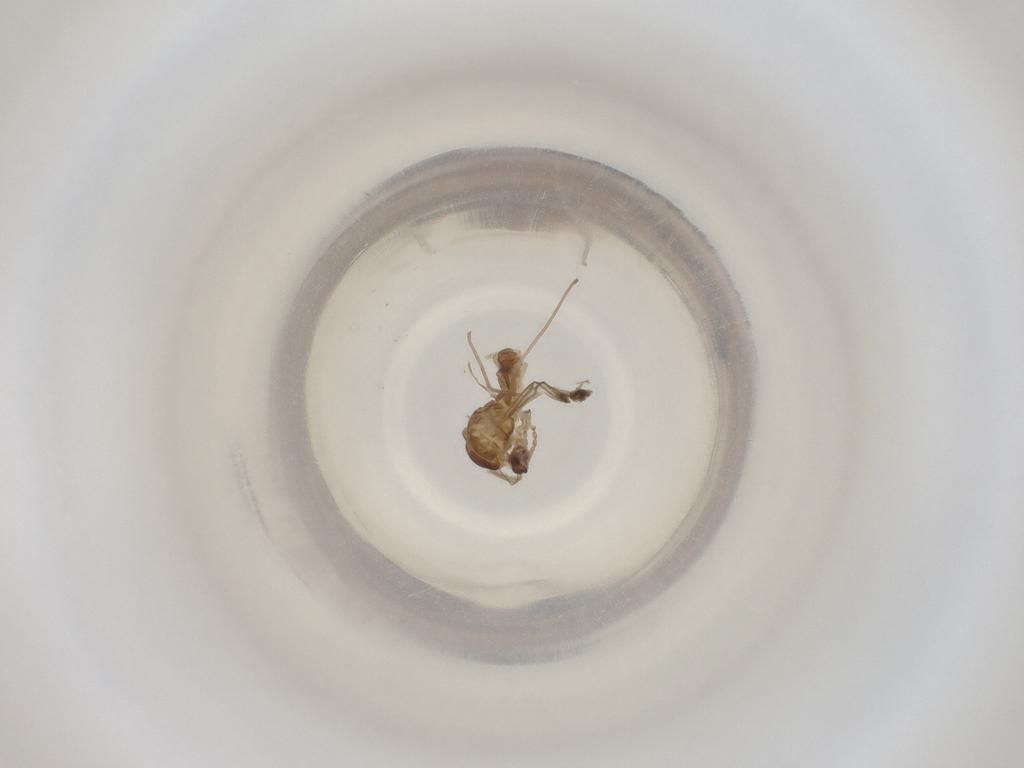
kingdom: Animalia
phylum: Arthropoda
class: Insecta
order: Diptera
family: Cecidomyiidae
